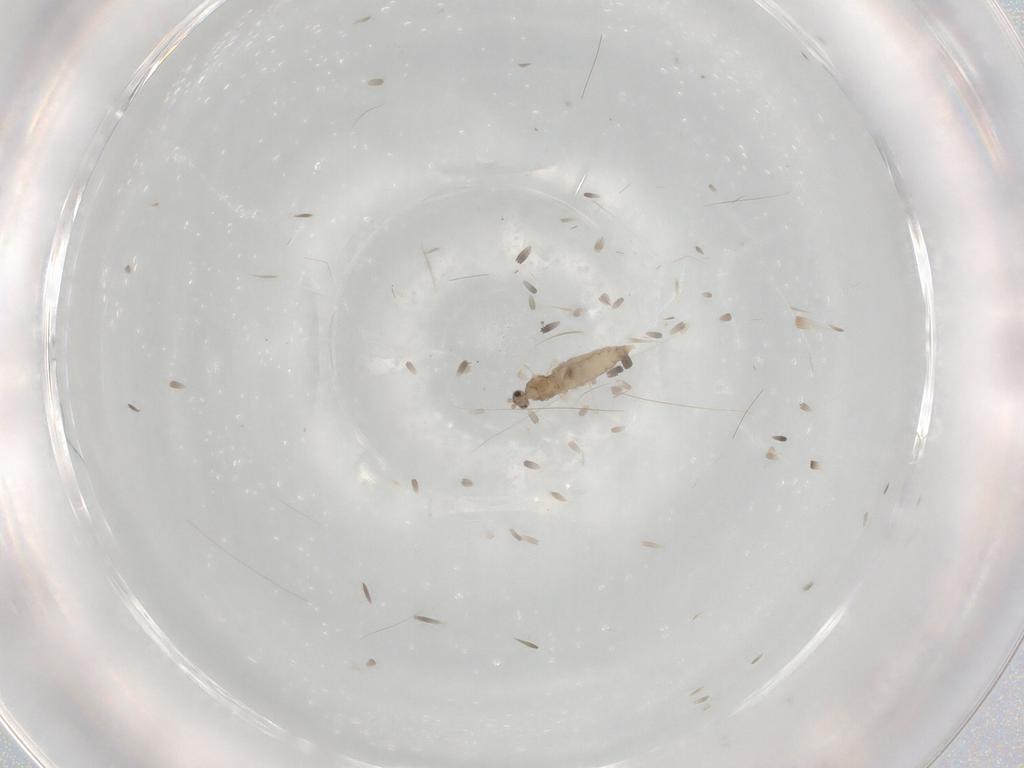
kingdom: Animalia
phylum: Arthropoda
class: Insecta
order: Diptera
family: Cecidomyiidae
